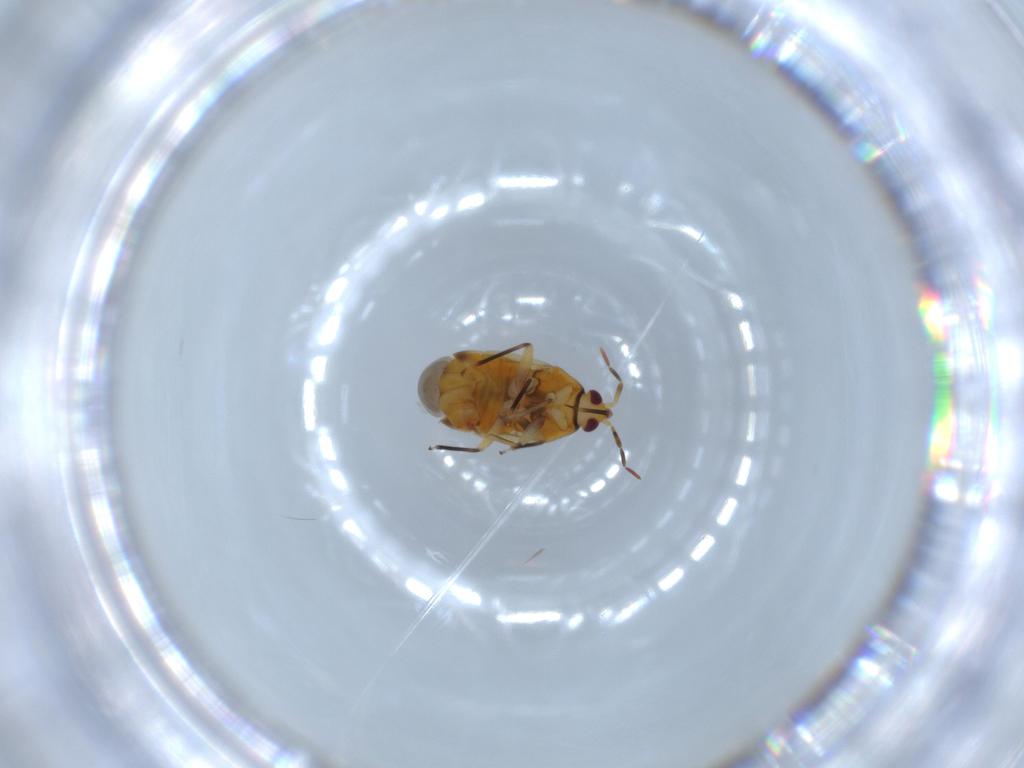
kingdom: Animalia
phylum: Arthropoda
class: Insecta
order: Hemiptera
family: Anthocoridae
